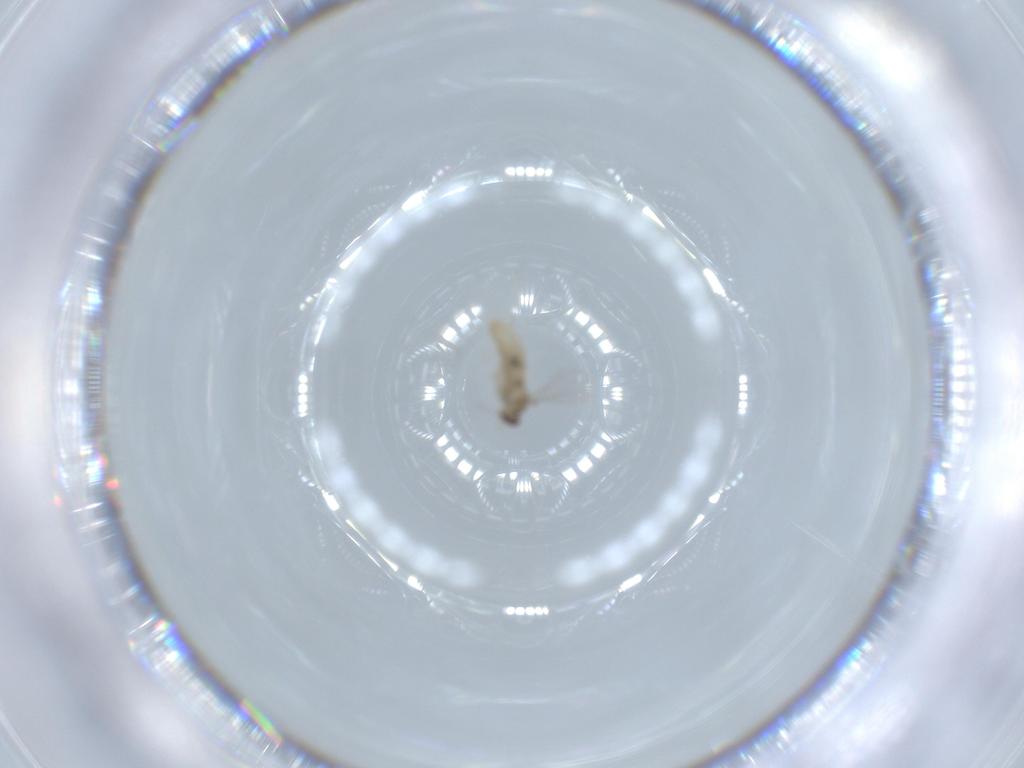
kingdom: Animalia
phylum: Arthropoda
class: Insecta
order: Diptera
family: Cecidomyiidae
